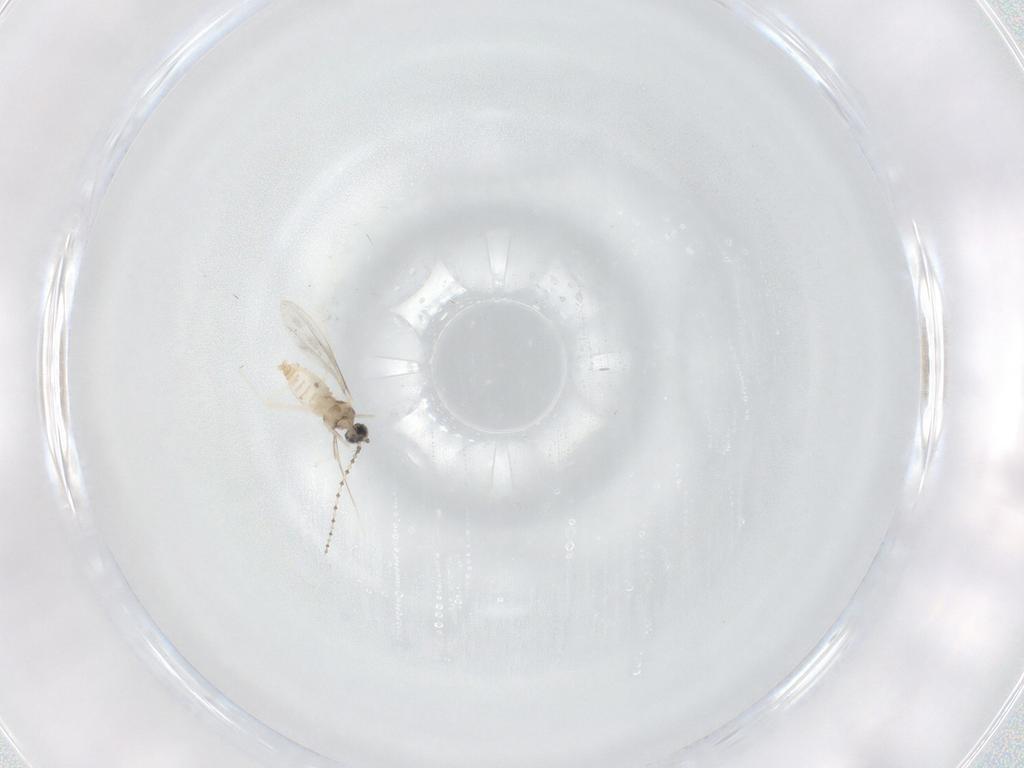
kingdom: Animalia
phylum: Arthropoda
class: Insecta
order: Diptera
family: Cecidomyiidae
